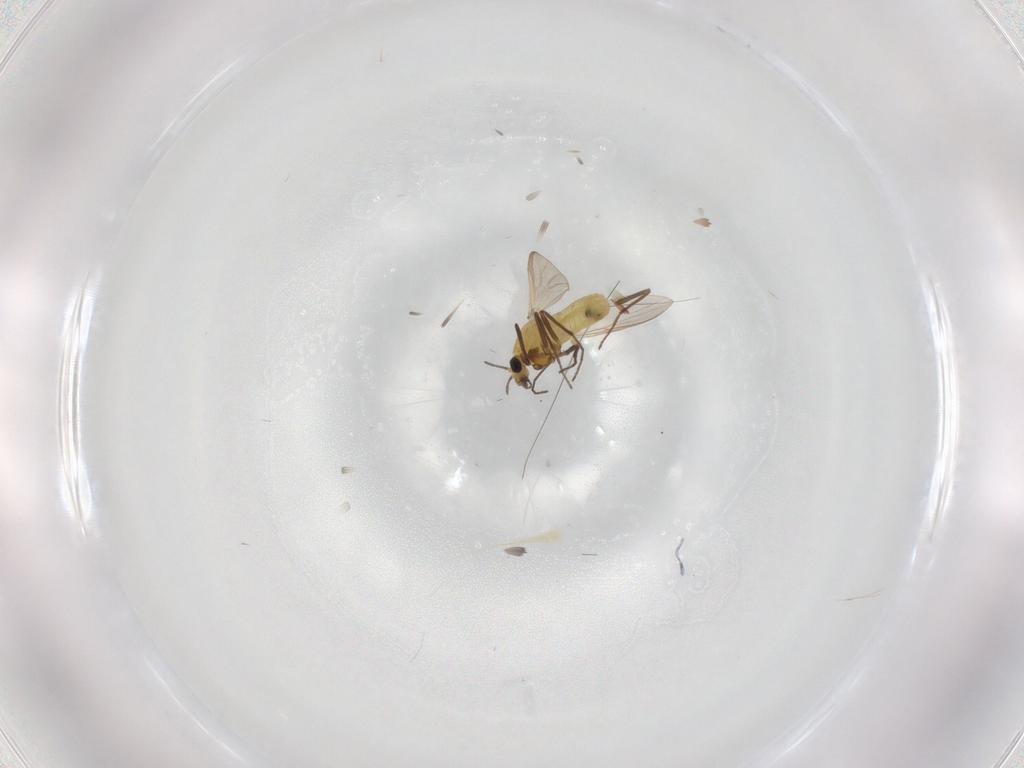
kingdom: Animalia
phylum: Arthropoda
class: Insecta
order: Diptera
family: Chironomidae
